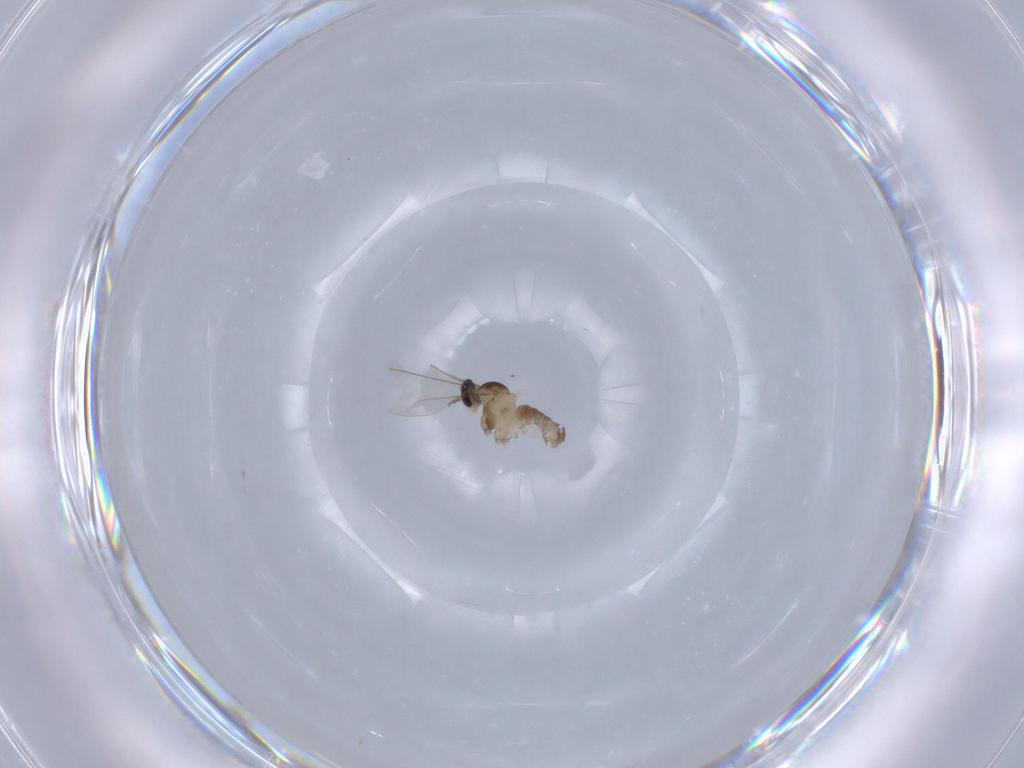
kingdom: Animalia
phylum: Arthropoda
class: Insecta
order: Diptera
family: Cecidomyiidae
